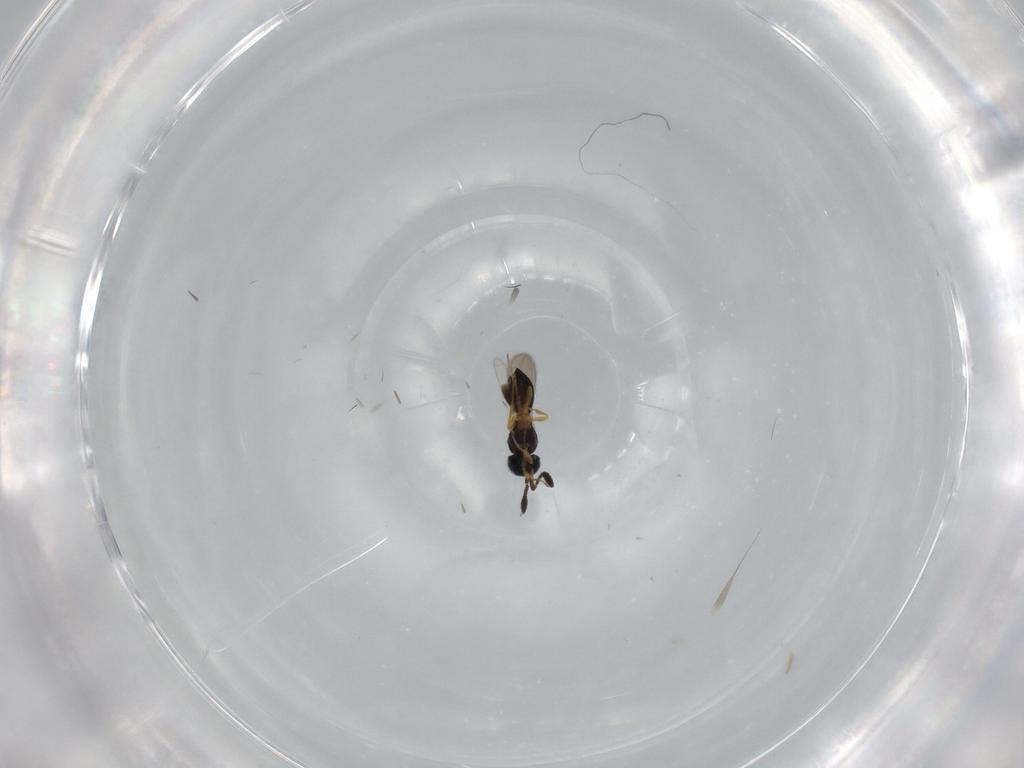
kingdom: Animalia
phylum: Arthropoda
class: Insecta
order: Hymenoptera
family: Scelionidae
